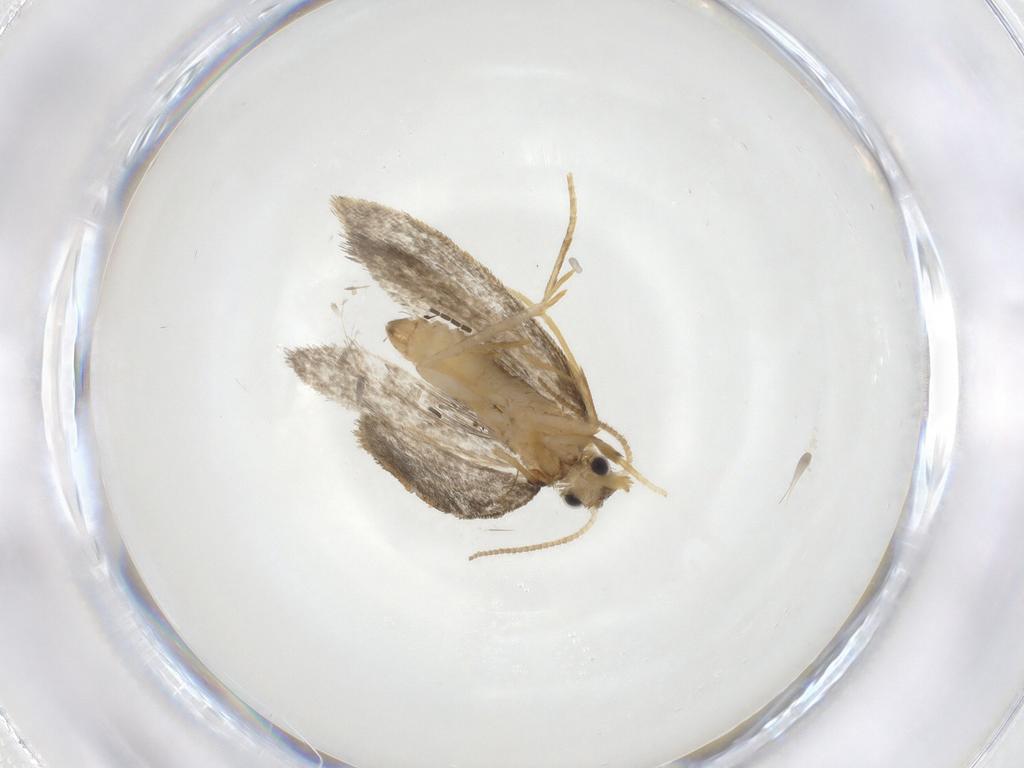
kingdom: Animalia
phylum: Arthropoda
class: Insecta
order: Lepidoptera
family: Psychidae
